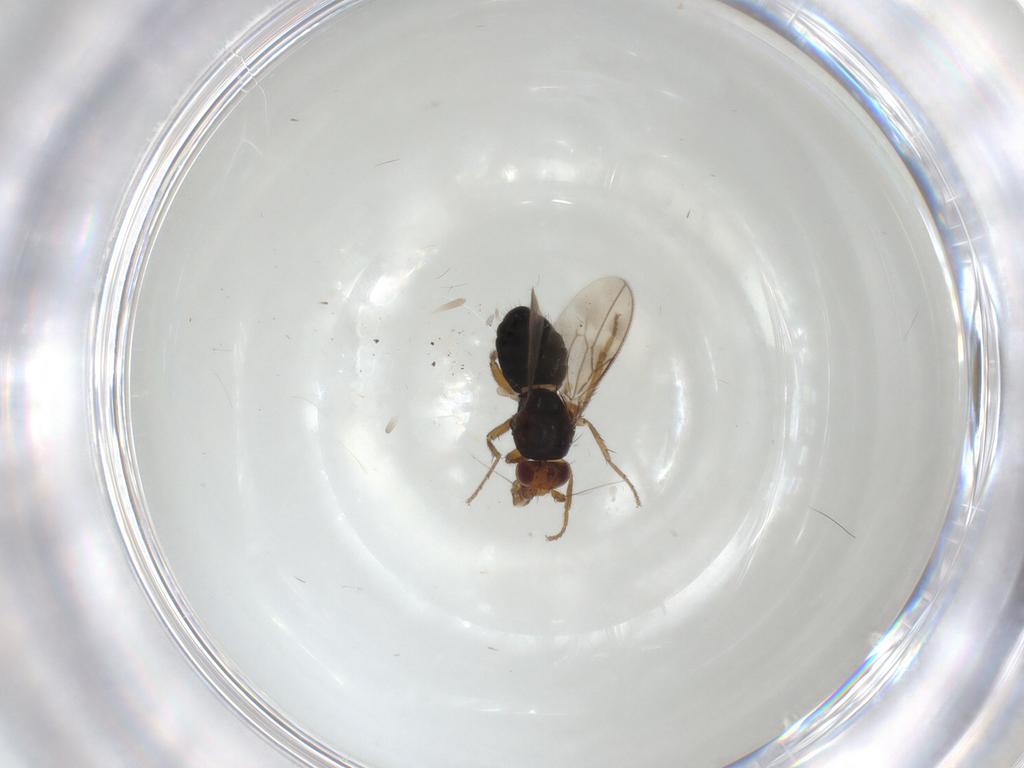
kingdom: Animalia
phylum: Arthropoda
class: Insecta
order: Diptera
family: Sphaeroceridae
